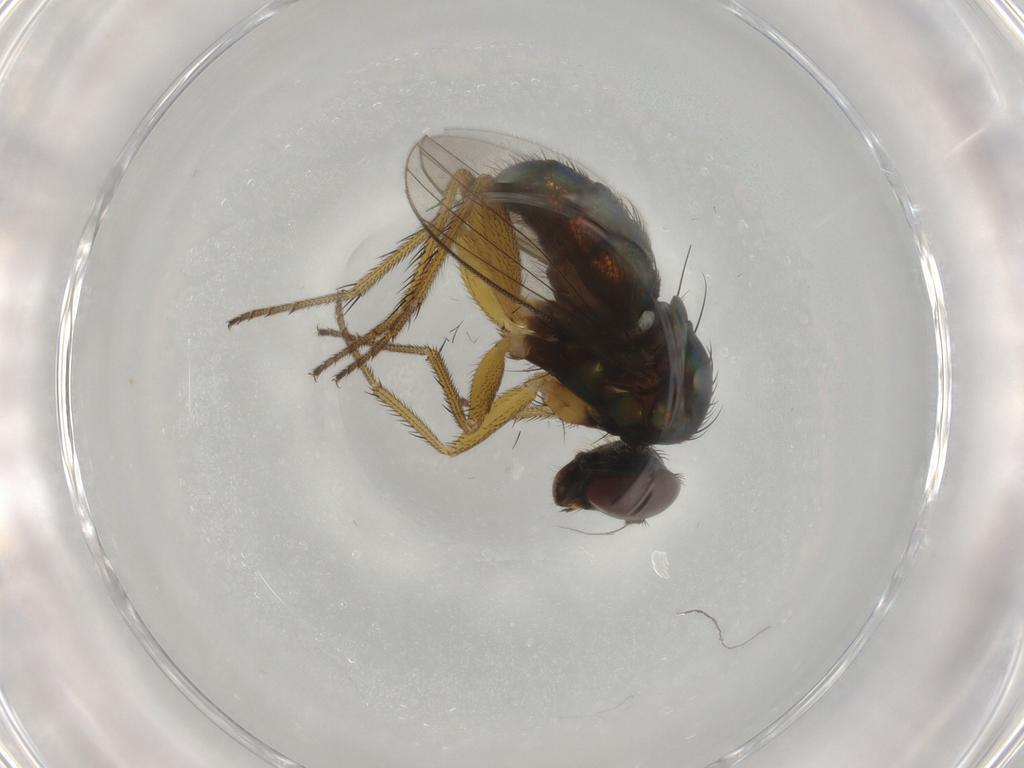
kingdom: Animalia
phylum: Arthropoda
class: Insecta
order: Diptera
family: Dolichopodidae
